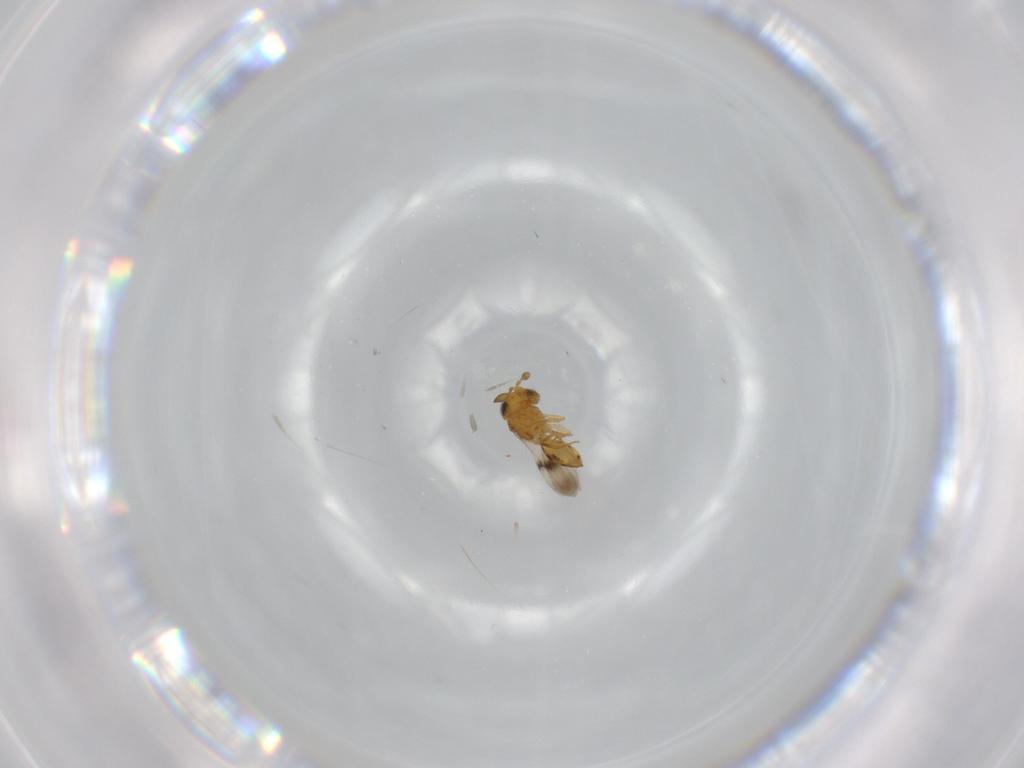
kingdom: Animalia
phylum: Arthropoda
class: Insecta
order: Hymenoptera
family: Scelionidae
